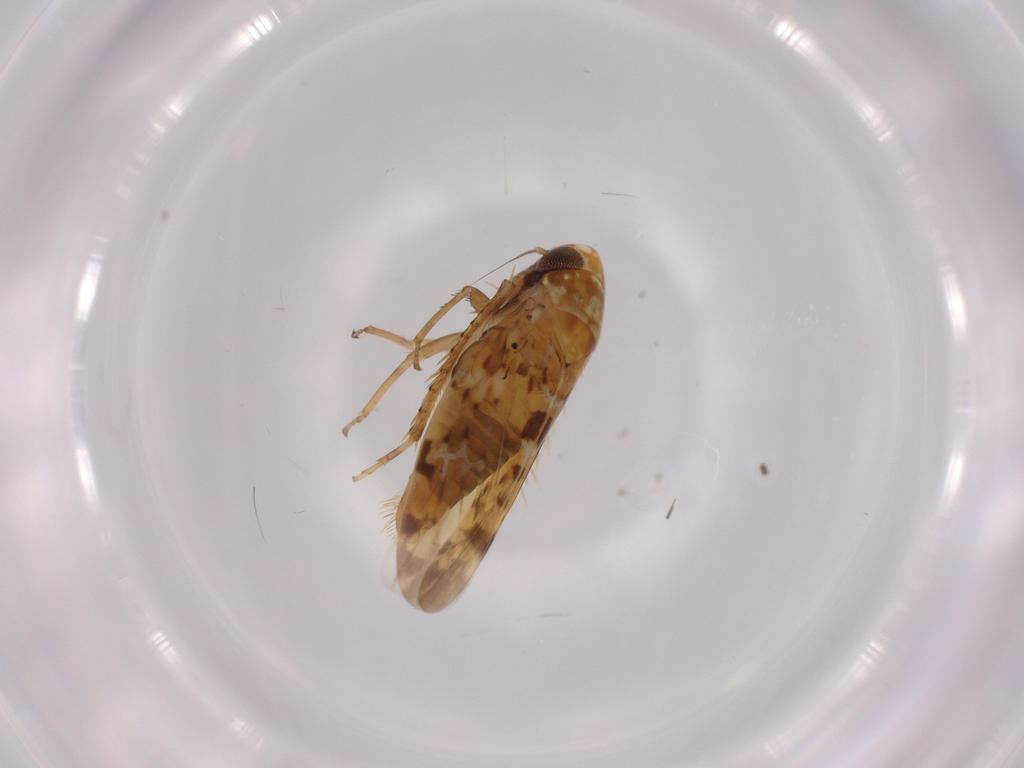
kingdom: Animalia
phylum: Arthropoda
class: Insecta
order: Hemiptera
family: Cicadellidae
